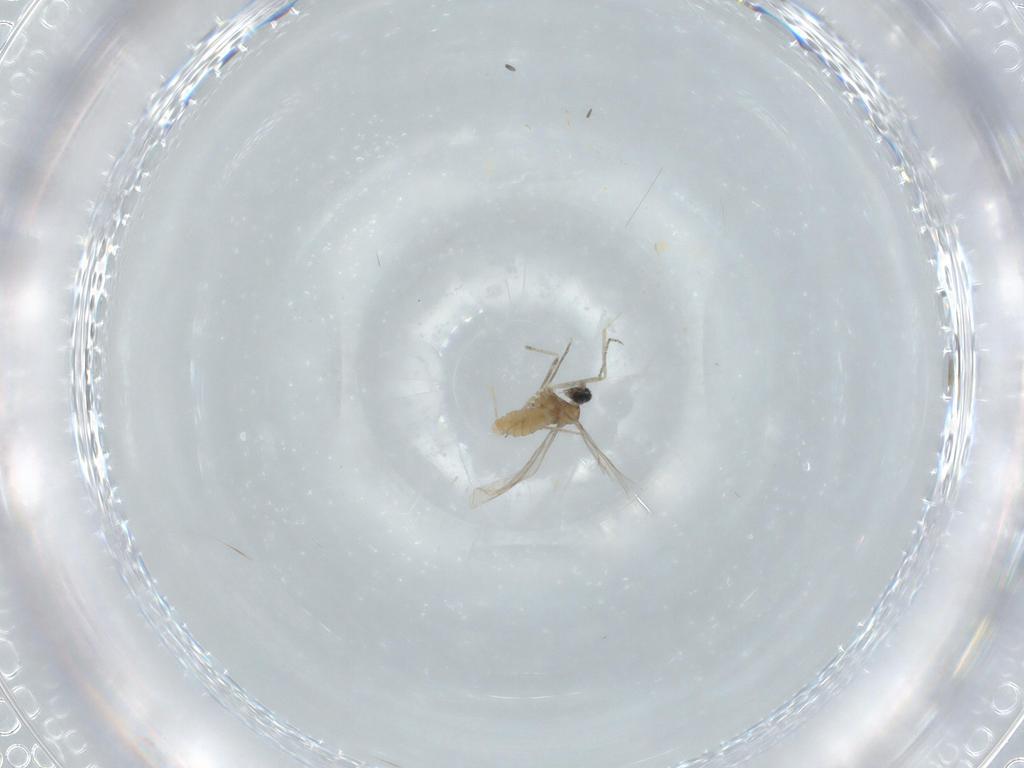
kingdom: Animalia
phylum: Arthropoda
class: Insecta
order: Diptera
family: Cecidomyiidae
